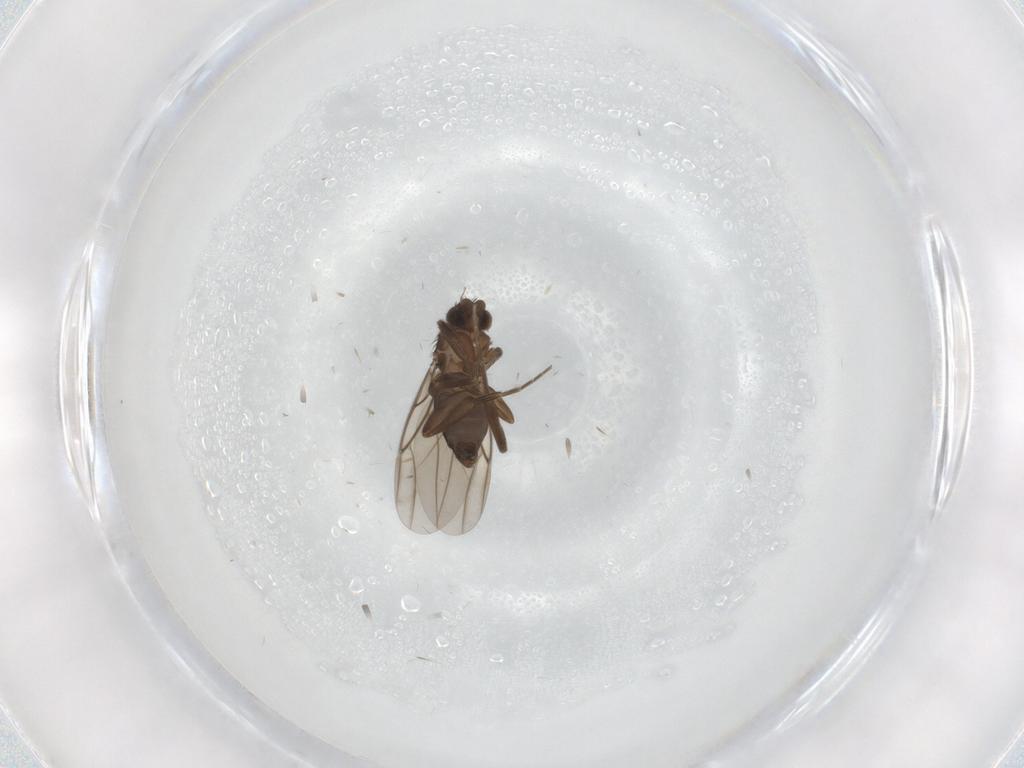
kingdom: Animalia
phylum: Arthropoda
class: Insecta
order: Diptera
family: Phoridae
